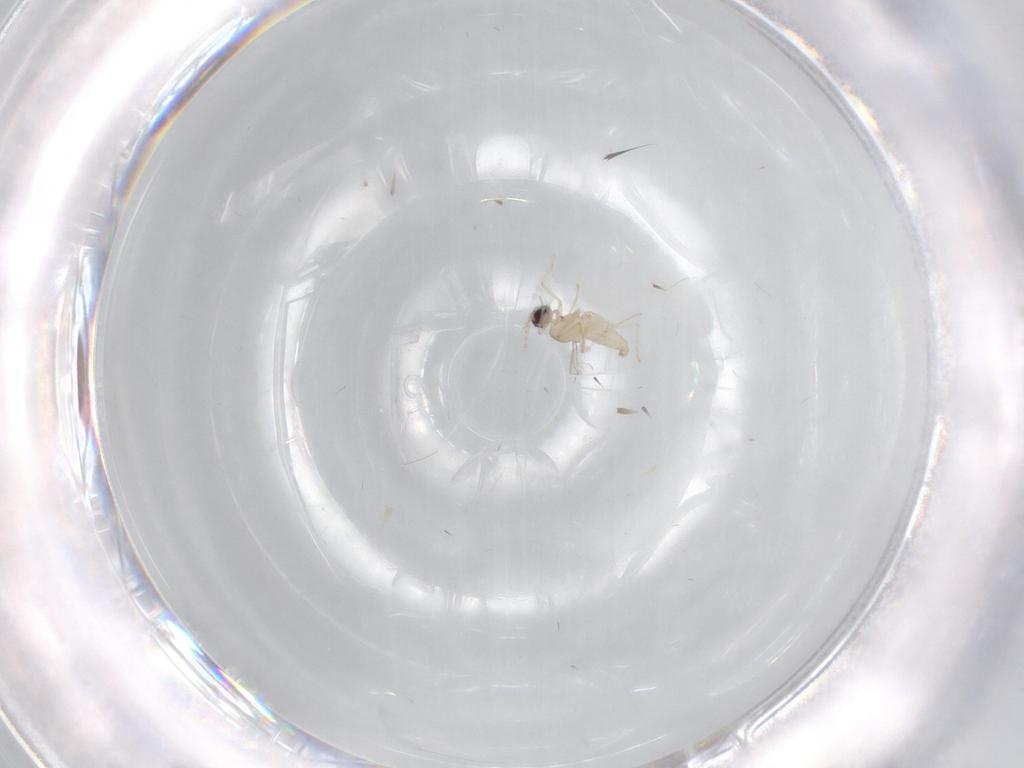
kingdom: Animalia
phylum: Arthropoda
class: Insecta
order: Diptera
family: Cecidomyiidae
